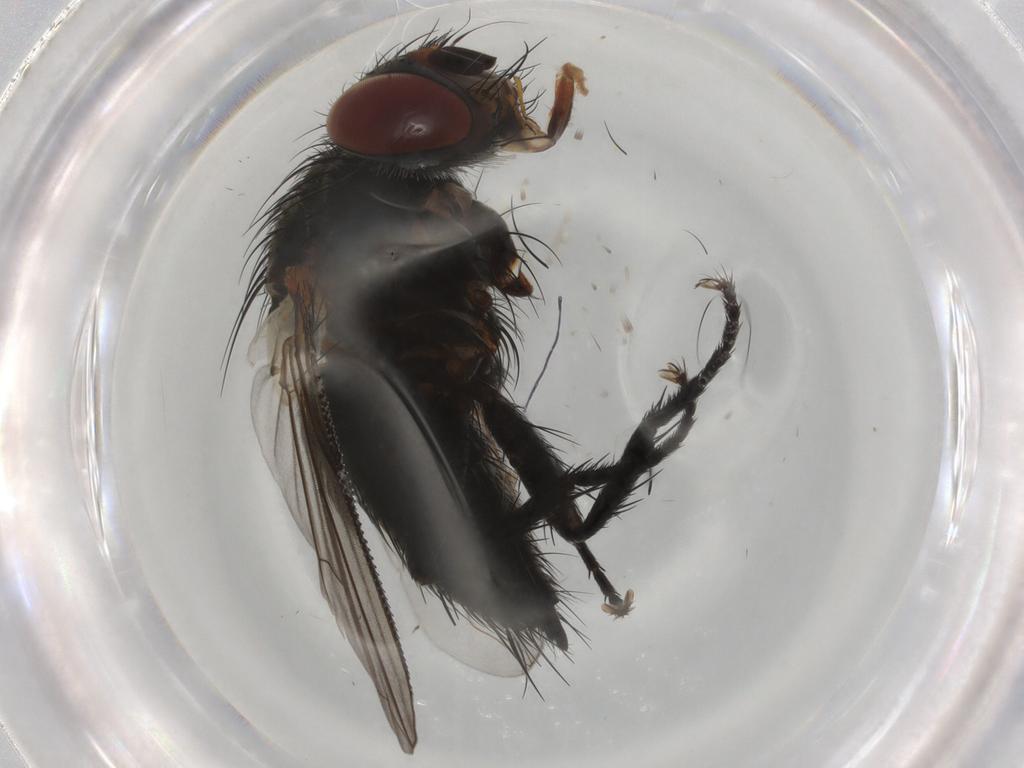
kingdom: Animalia
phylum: Arthropoda
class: Insecta
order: Diptera
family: Tachinidae
